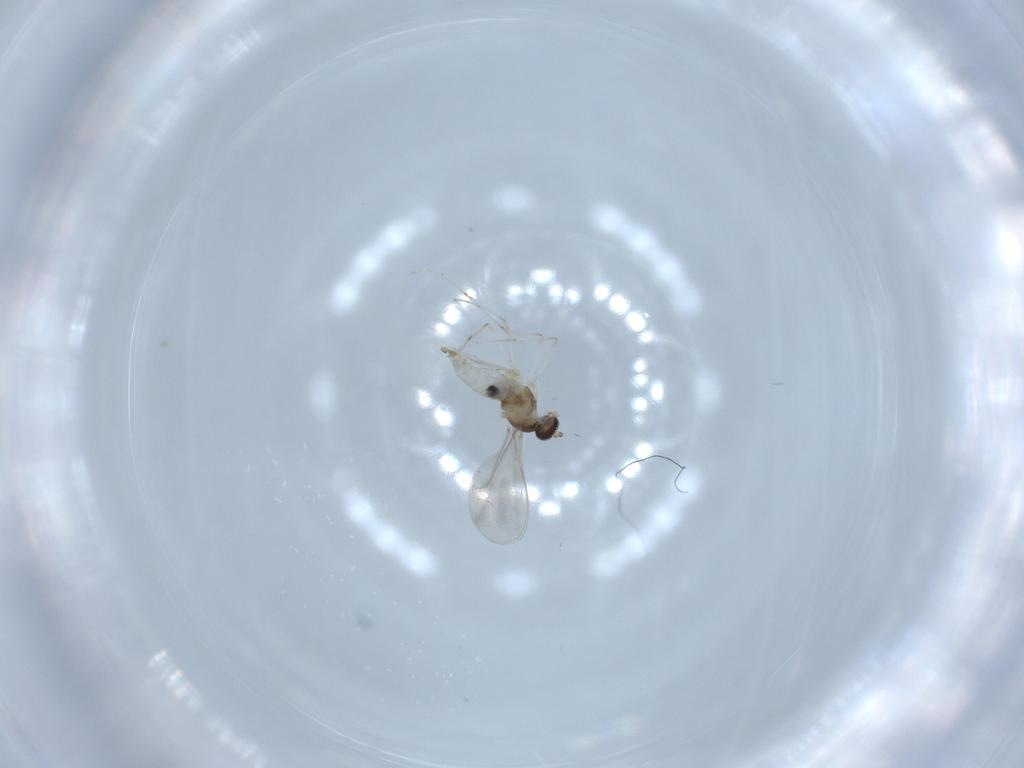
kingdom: Animalia
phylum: Arthropoda
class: Insecta
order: Diptera
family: Cecidomyiidae
